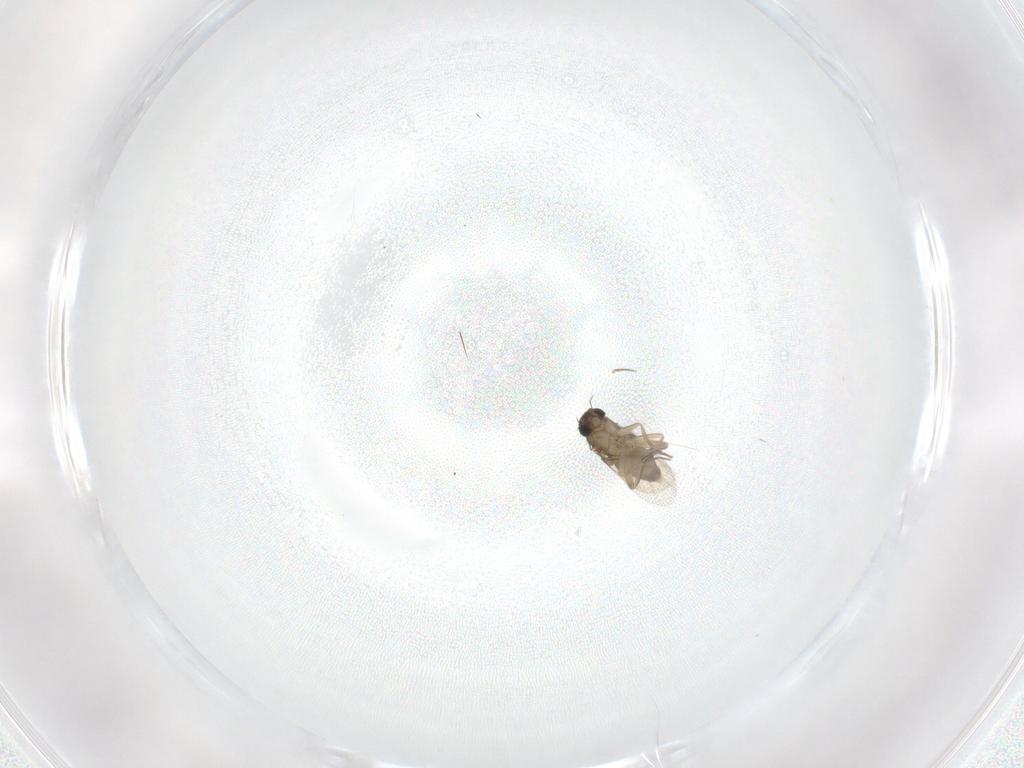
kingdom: Animalia
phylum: Arthropoda
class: Insecta
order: Diptera
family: Phoridae
